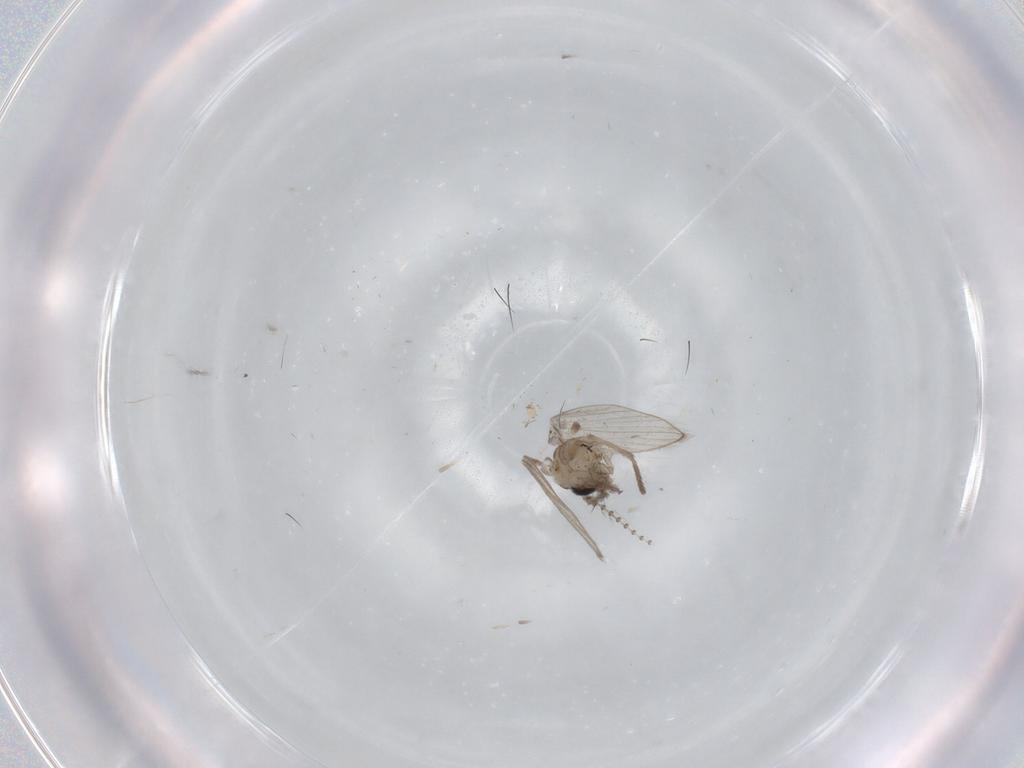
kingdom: Animalia
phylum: Arthropoda
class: Insecta
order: Diptera
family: Psychodidae
